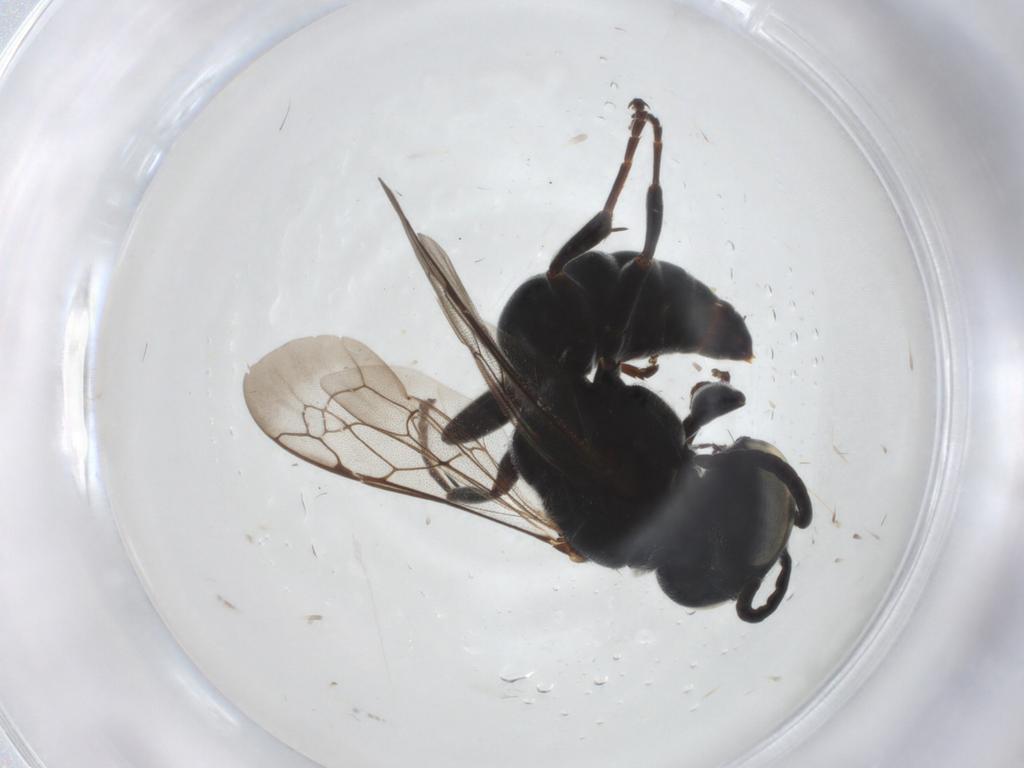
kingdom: Animalia
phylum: Arthropoda
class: Insecta
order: Hymenoptera
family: Crabronidae
